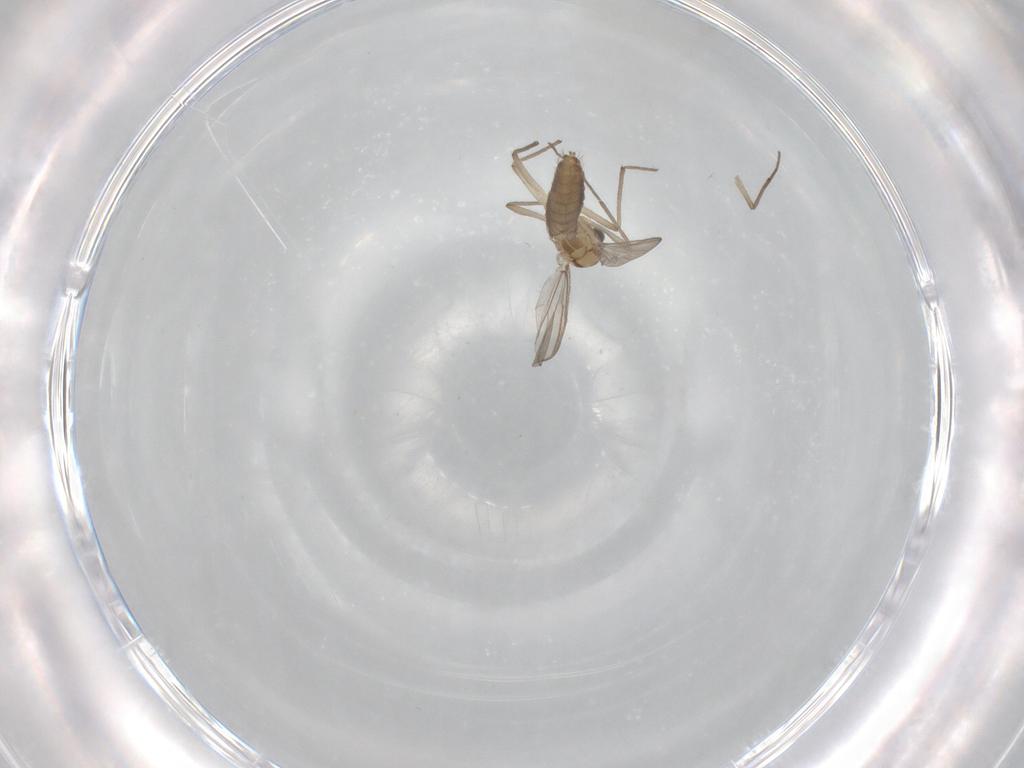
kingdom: Animalia
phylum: Arthropoda
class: Insecta
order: Diptera
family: Chironomidae
